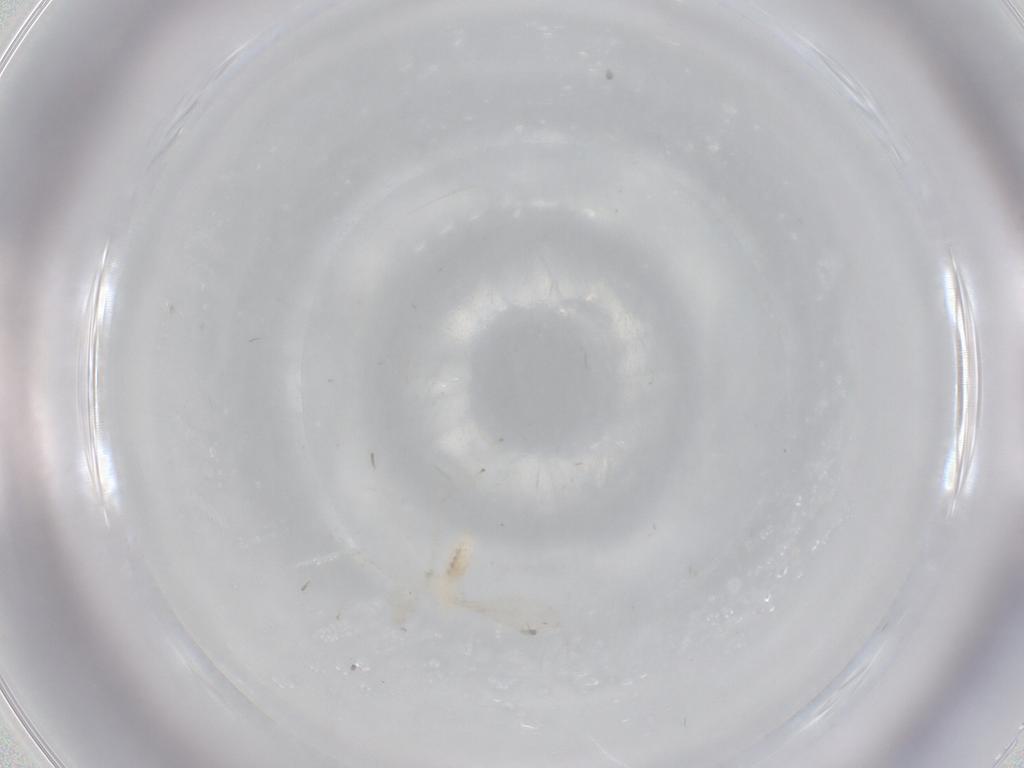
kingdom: Animalia
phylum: Arthropoda
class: Insecta
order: Diptera
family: Cecidomyiidae
